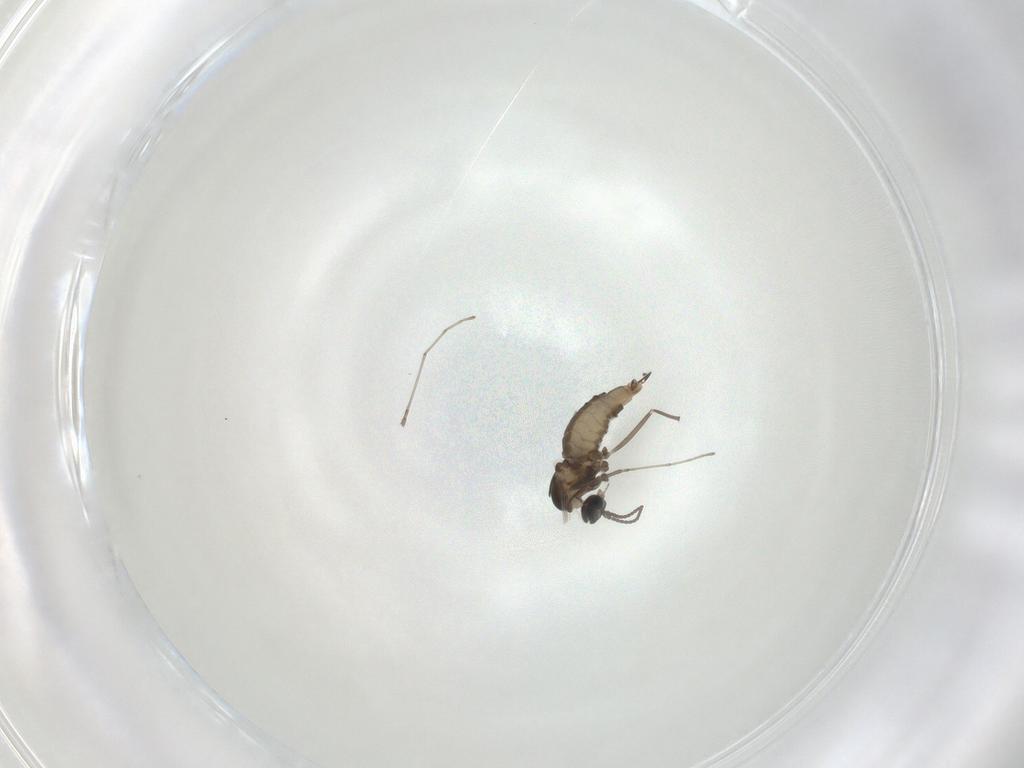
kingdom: Animalia
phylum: Arthropoda
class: Insecta
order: Diptera
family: Cecidomyiidae
